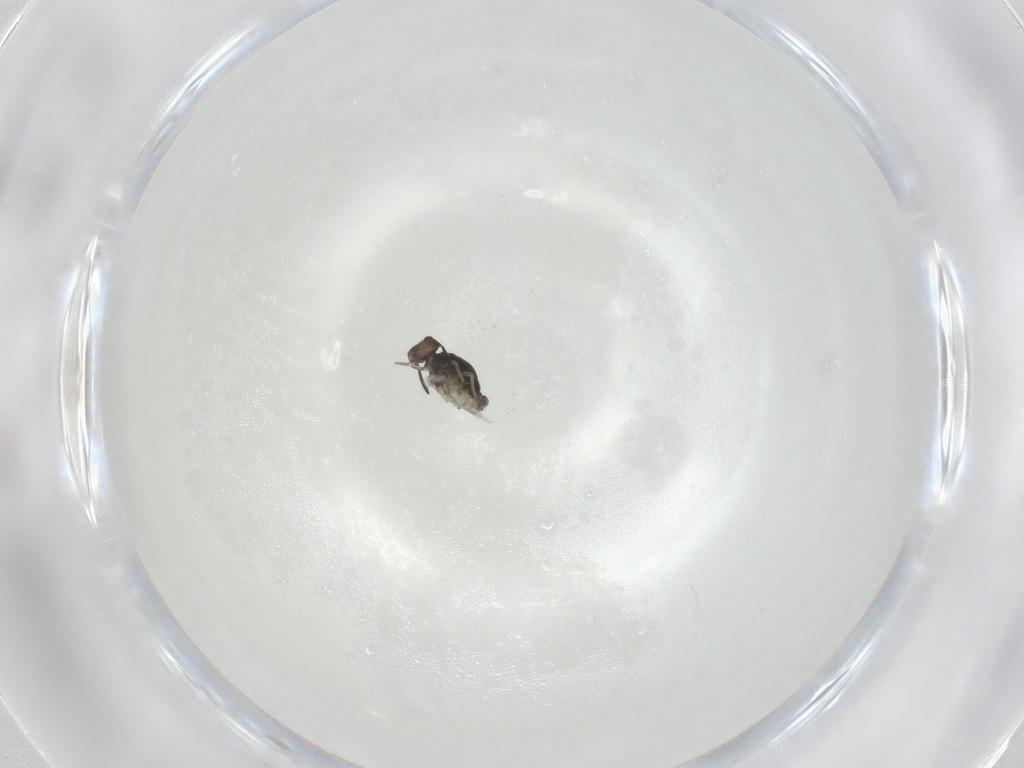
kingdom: Animalia
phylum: Arthropoda
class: Collembola
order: Symphypleona
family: Katiannidae
